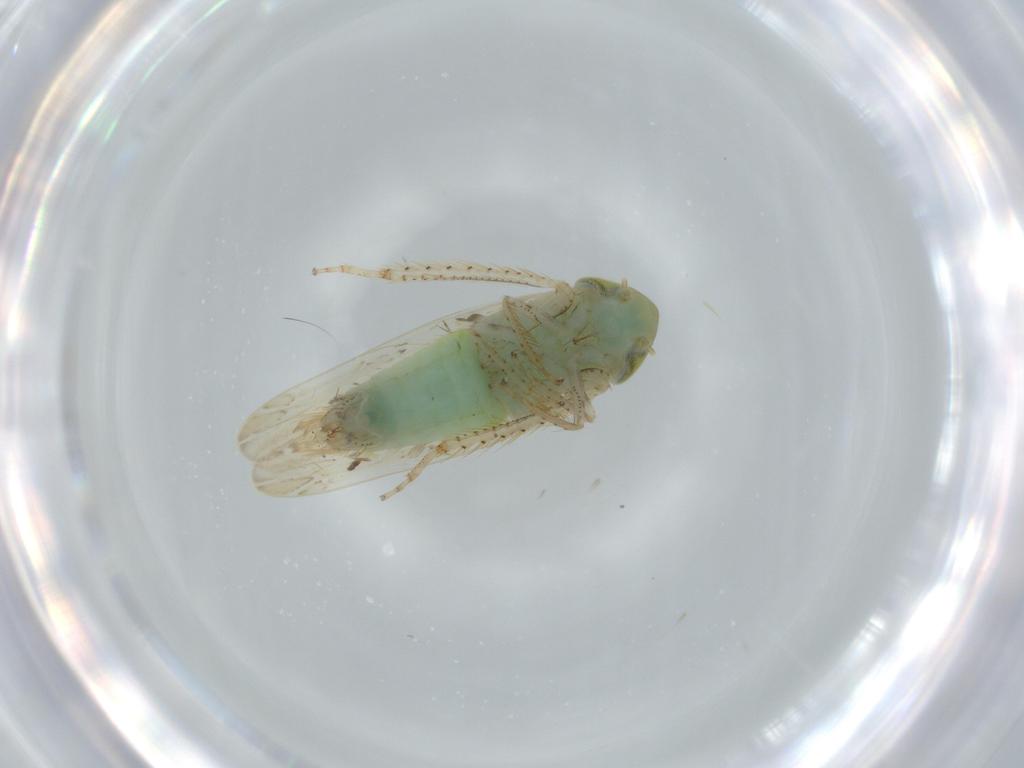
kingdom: Animalia
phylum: Arthropoda
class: Insecta
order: Hemiptera
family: Cicadellidae
